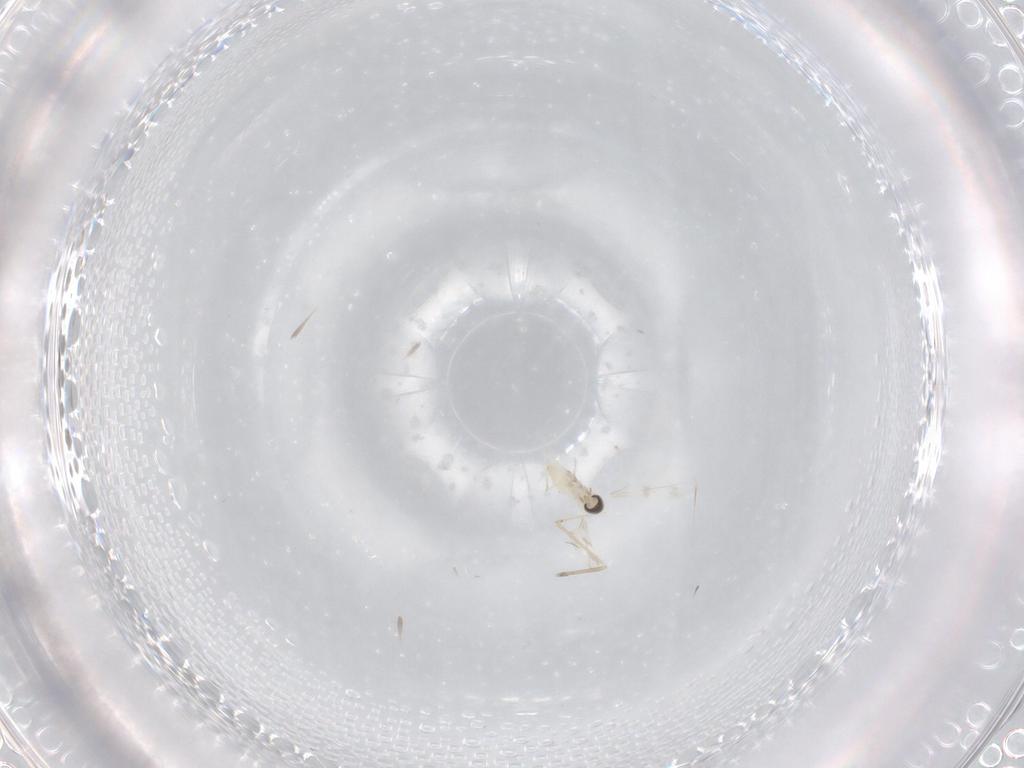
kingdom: Animalia
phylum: Arthropoda
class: Insecta
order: Diptera
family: Cecidomyiidae
